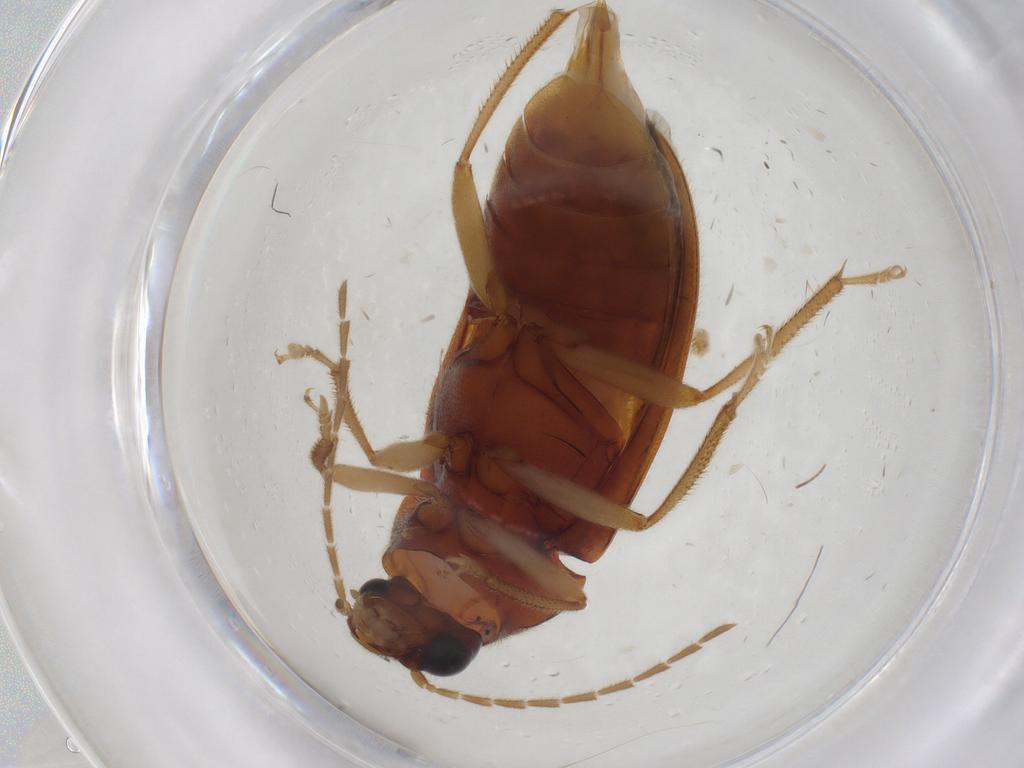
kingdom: Animalia
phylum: Arthropoda
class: Insecta
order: Coleoptera
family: Ptilodactylidae
